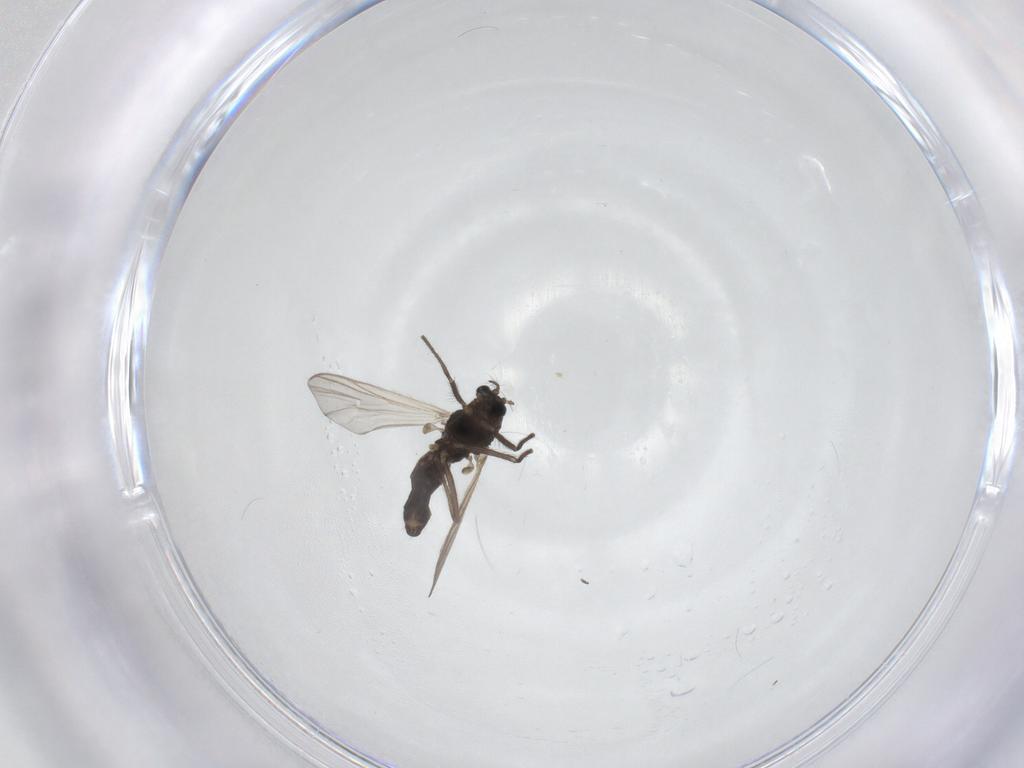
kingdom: Animalia
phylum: Arthropoda
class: Insecta
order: Diptera
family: Chironomidae
